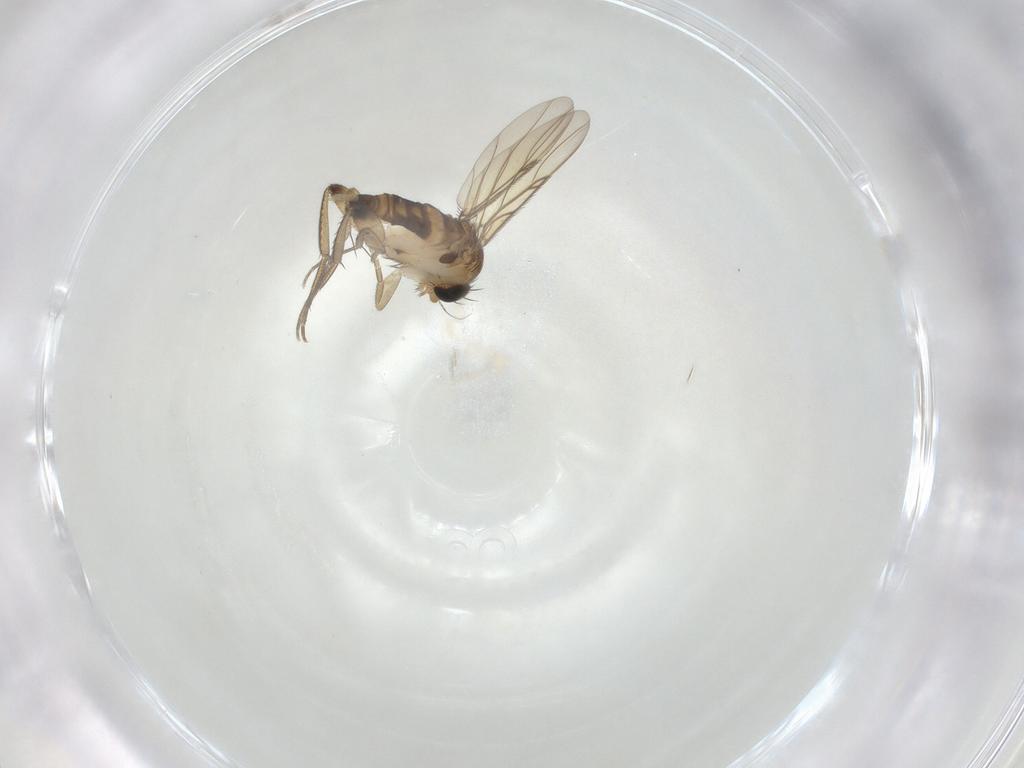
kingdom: Animalia
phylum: Arthropoda
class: Insecta
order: Diptera
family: Phoridae
